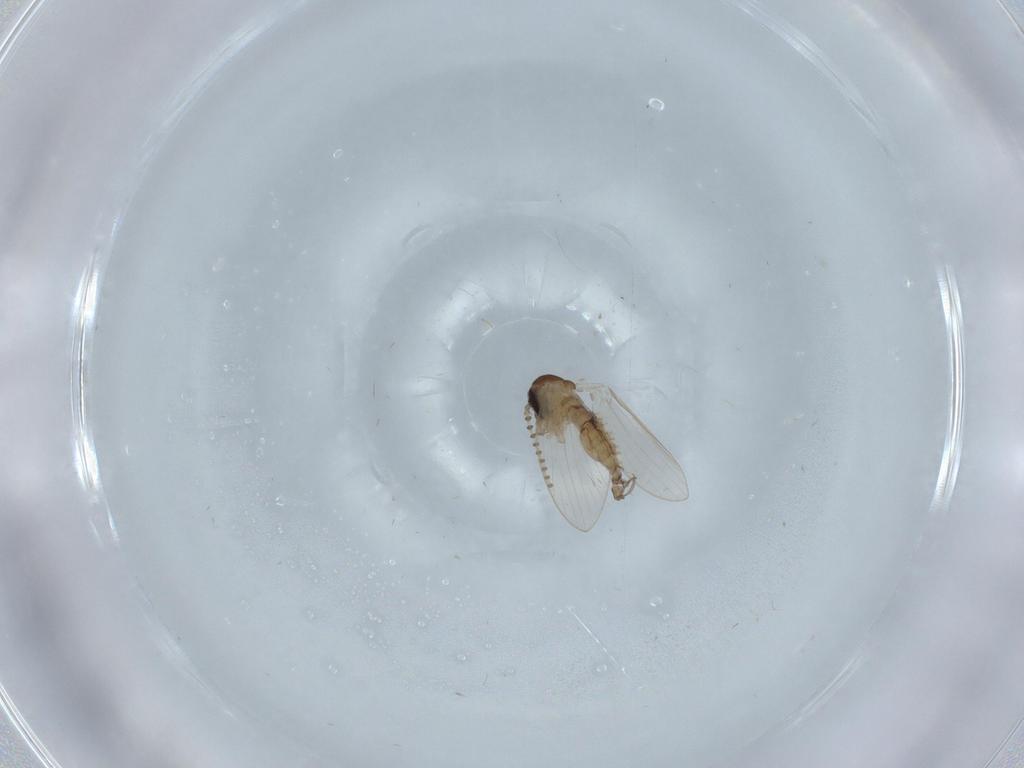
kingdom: Animalia
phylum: Arthropoda
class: Insecta
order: Diptera
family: Psychodidae
